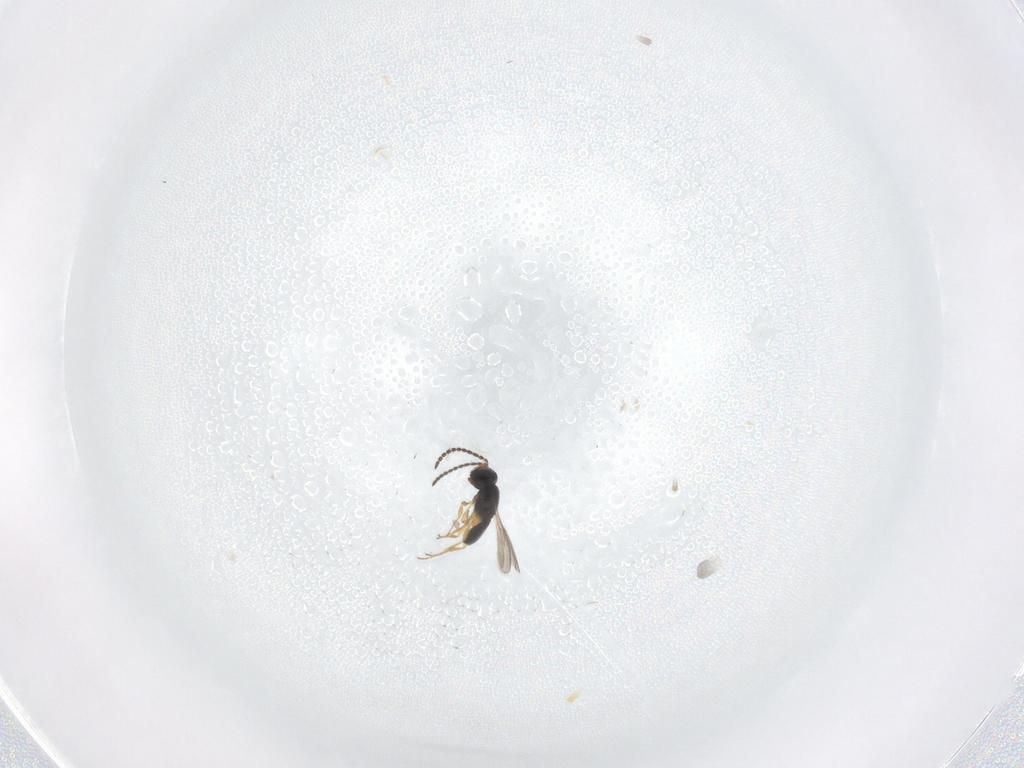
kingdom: Animalia
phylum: Arthropoda
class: Insecta
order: Hymenoptera
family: Scelionidae
